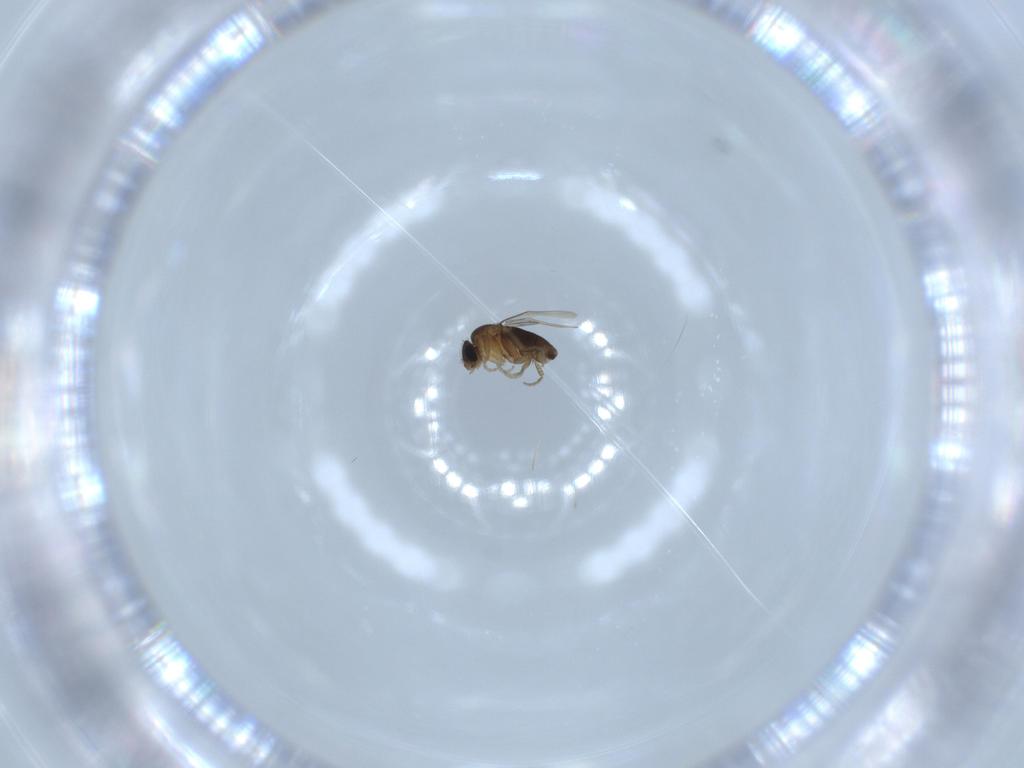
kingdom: Animalia
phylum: Arthropoda
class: Insecta
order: Diptera
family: Phoridae
